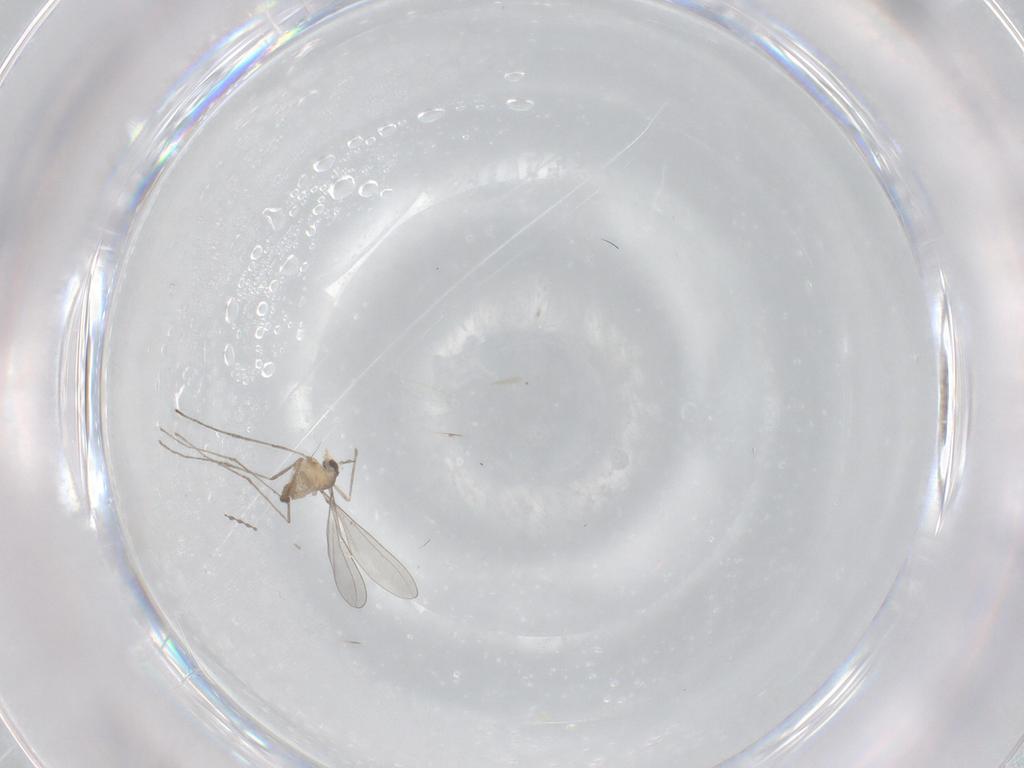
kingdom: Animalia
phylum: Arthropoda
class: Insecta
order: Diptera
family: Cecidomyiidae
